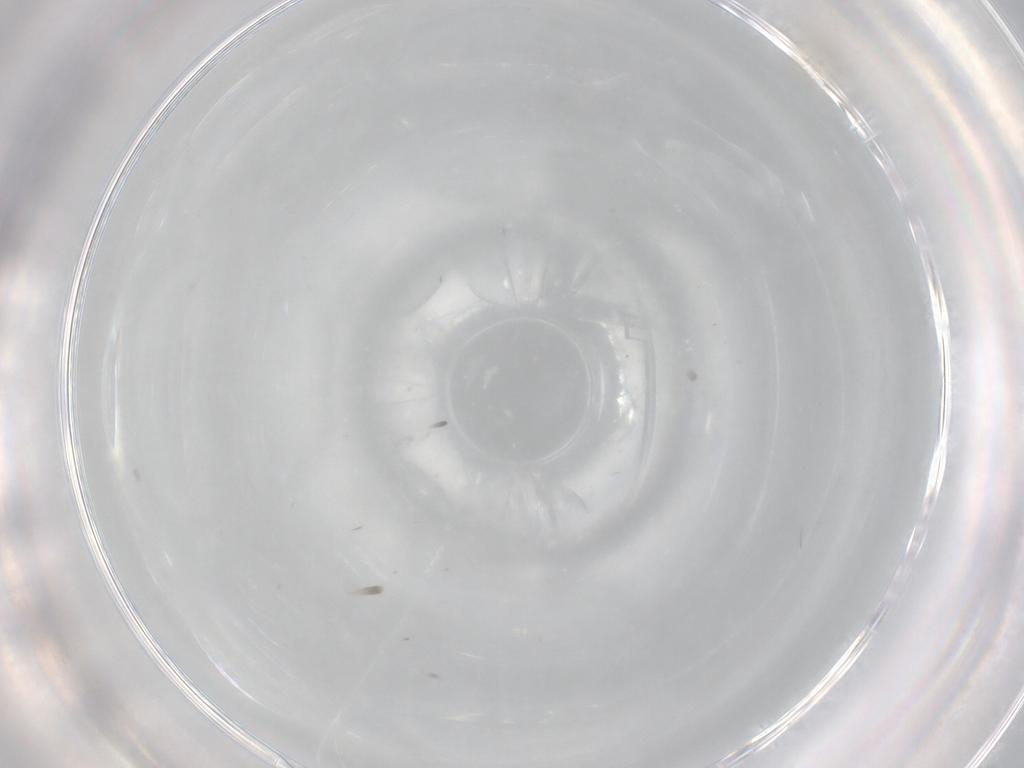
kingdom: Animalia
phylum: Arthropoda
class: Insecta
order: Diptera
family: Cecidomyiidae
